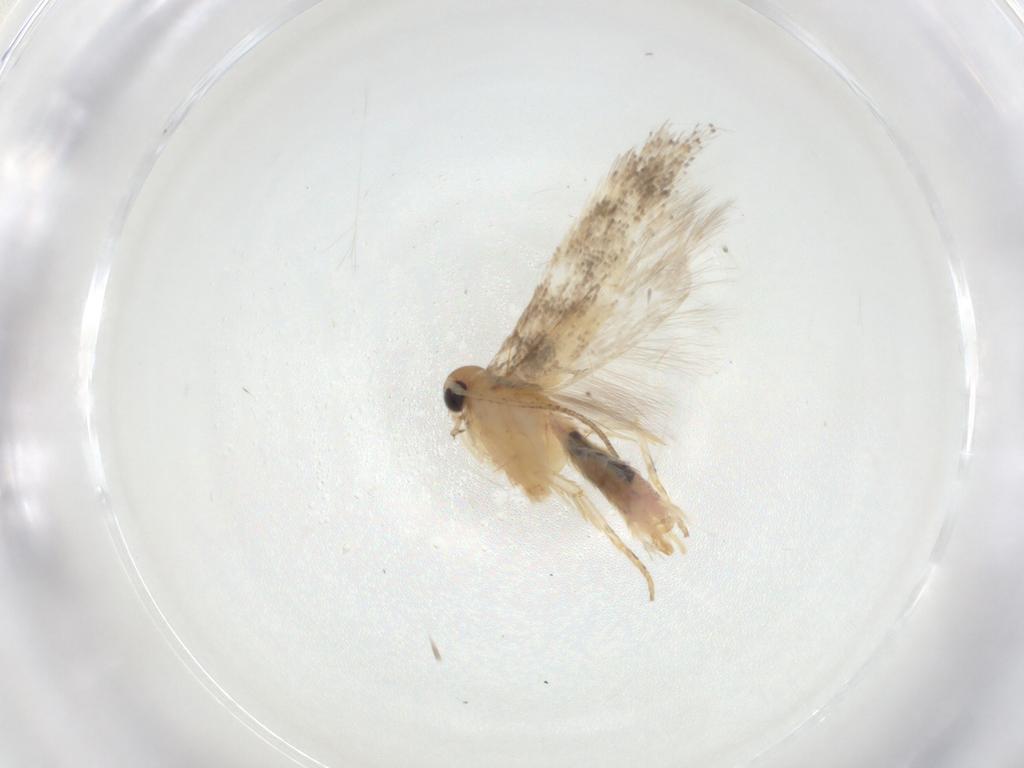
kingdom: Animalia
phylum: Arthropoda
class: Insecta
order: Lepidoptera
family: Gelechiidae
